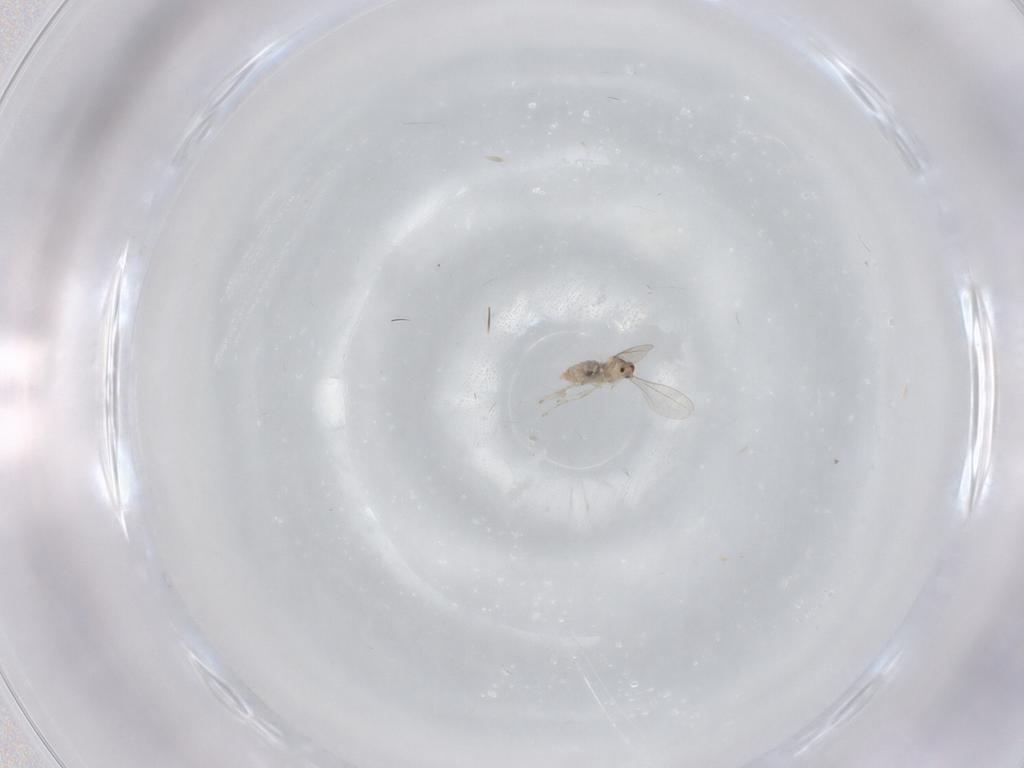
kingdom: Animalia
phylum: Arthropoda
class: Insecta
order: Diptera
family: Cecidomyiidae
